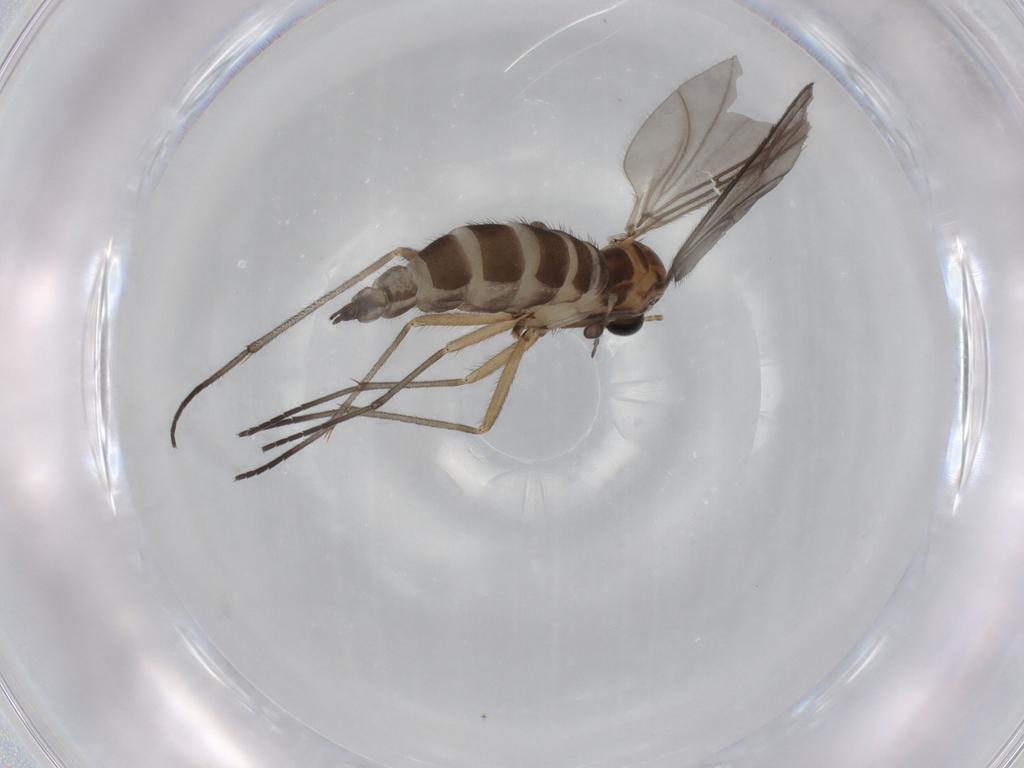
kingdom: Animalia
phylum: Arthropoda
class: Insecta
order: Diptera
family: Sciaridae
